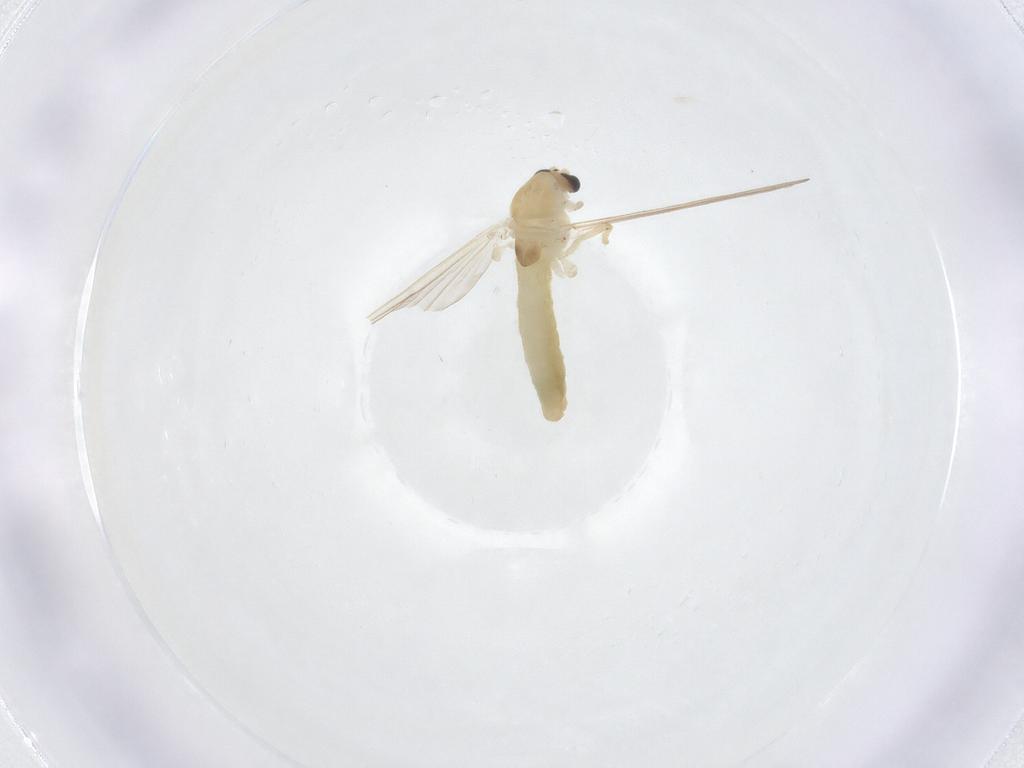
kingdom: Animalia
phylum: Arthropoda
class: Insecta
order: Diptera
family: Chironomidae
